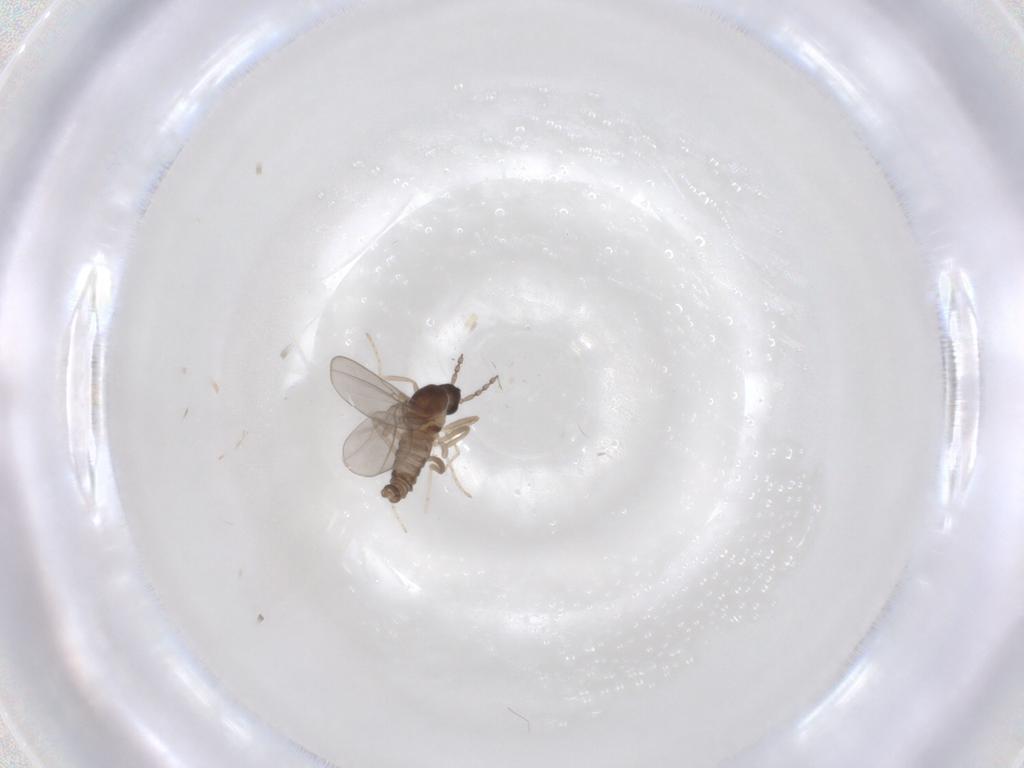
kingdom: Animalia
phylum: Arthropoda
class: Insecta
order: Diptera
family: Cecidomyiidae
